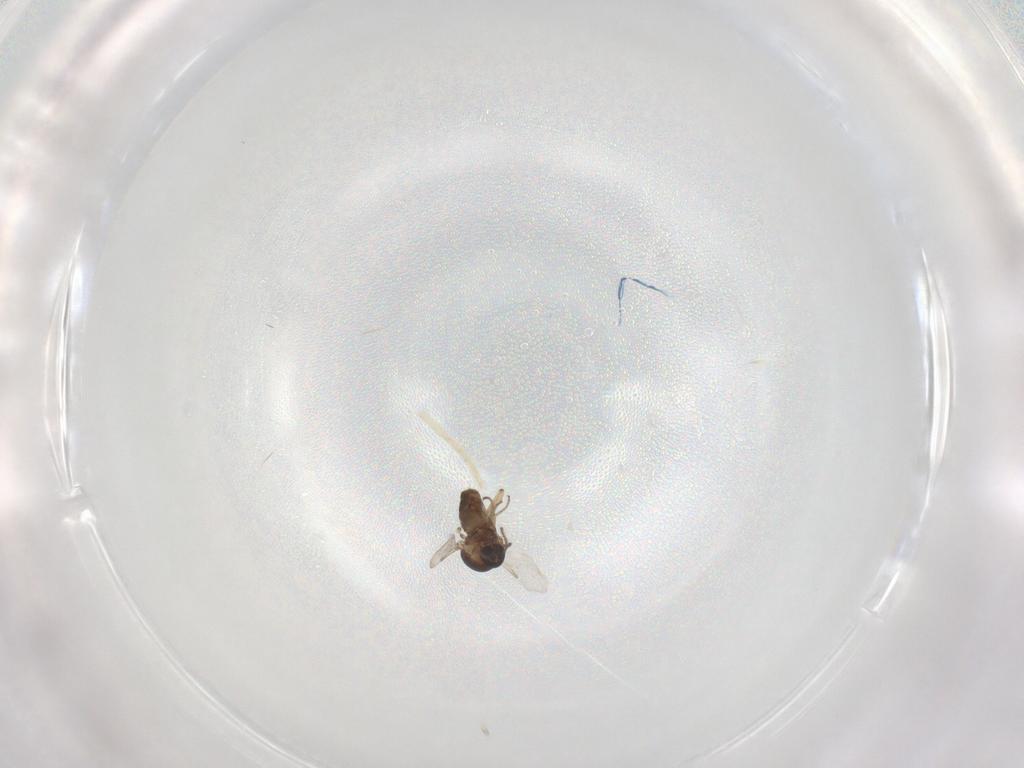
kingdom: Animalia
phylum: Arthropoda
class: Insecta
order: Diptera
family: Ceratopogonidae
